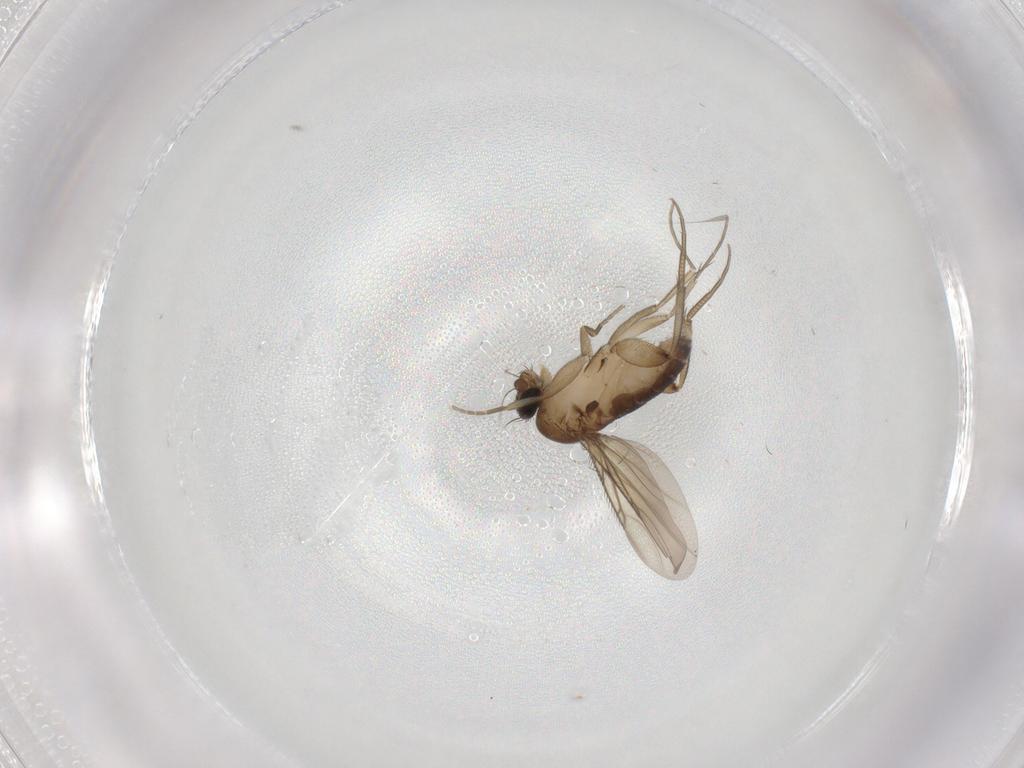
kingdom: Animalia
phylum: Arthropoda
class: Insecta
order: Diptera
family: Phoridae
